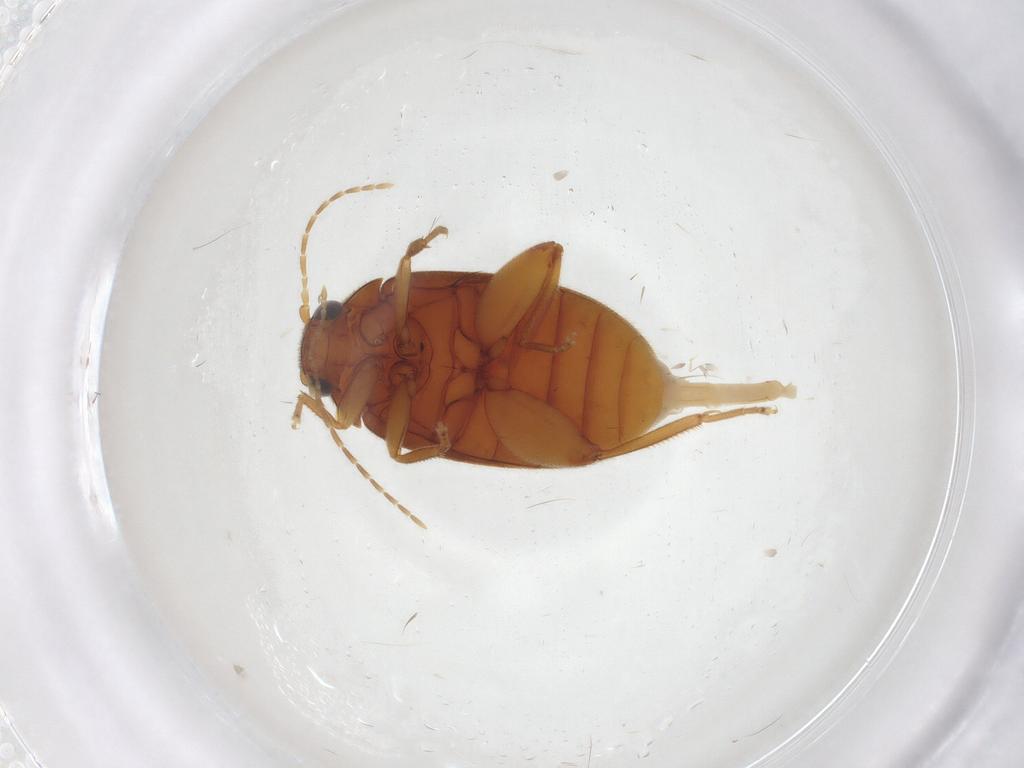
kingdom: Animalia
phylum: Arthropoda
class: Insecta
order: Coleoptera
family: Scirtidae
